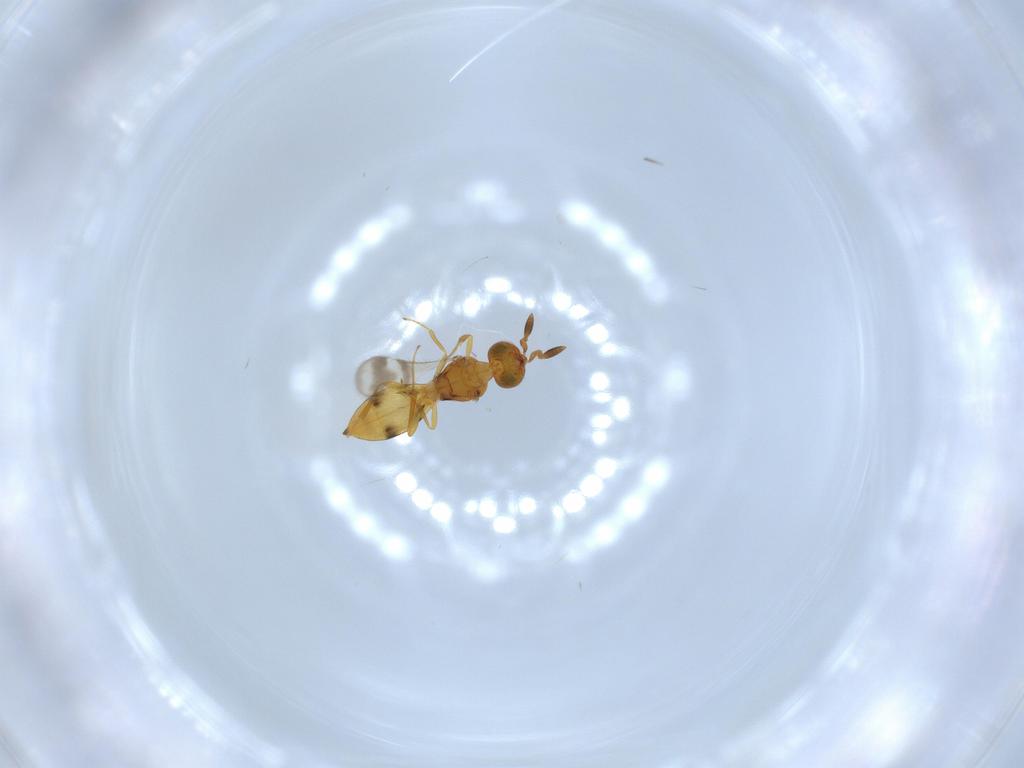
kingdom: Animalia
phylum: Arthropoda
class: Insecta
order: Hymenoptera
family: Scelionidae
